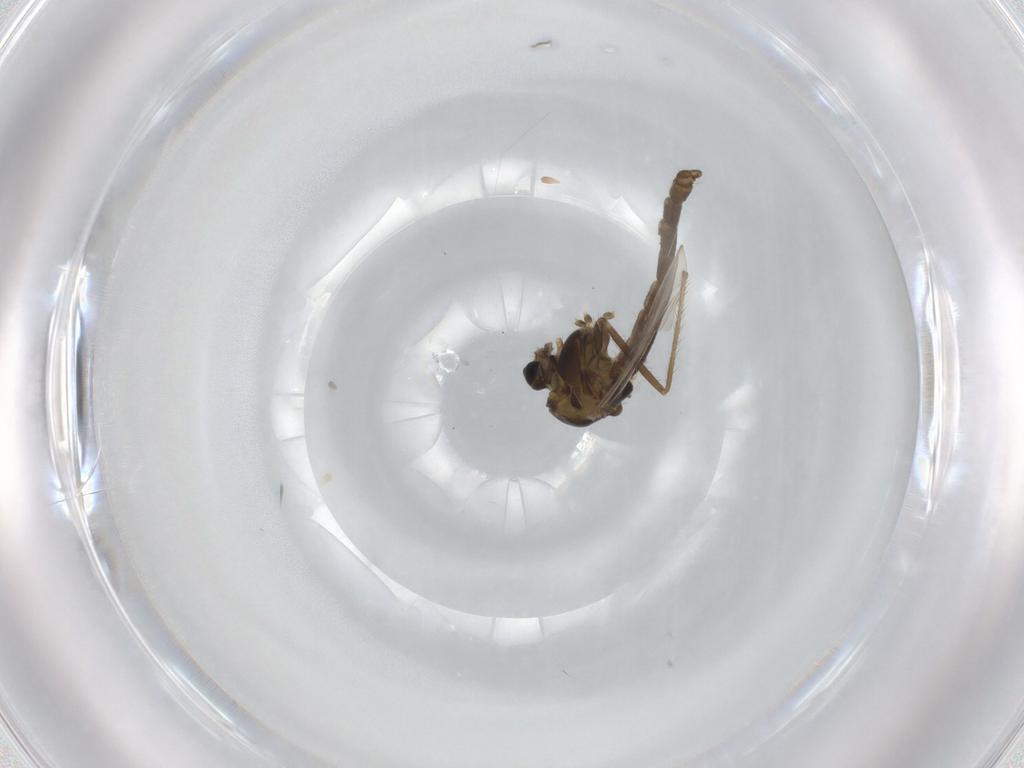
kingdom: Animalia
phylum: Arthropoda
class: Insecta
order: Diptera
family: Chironomidae
